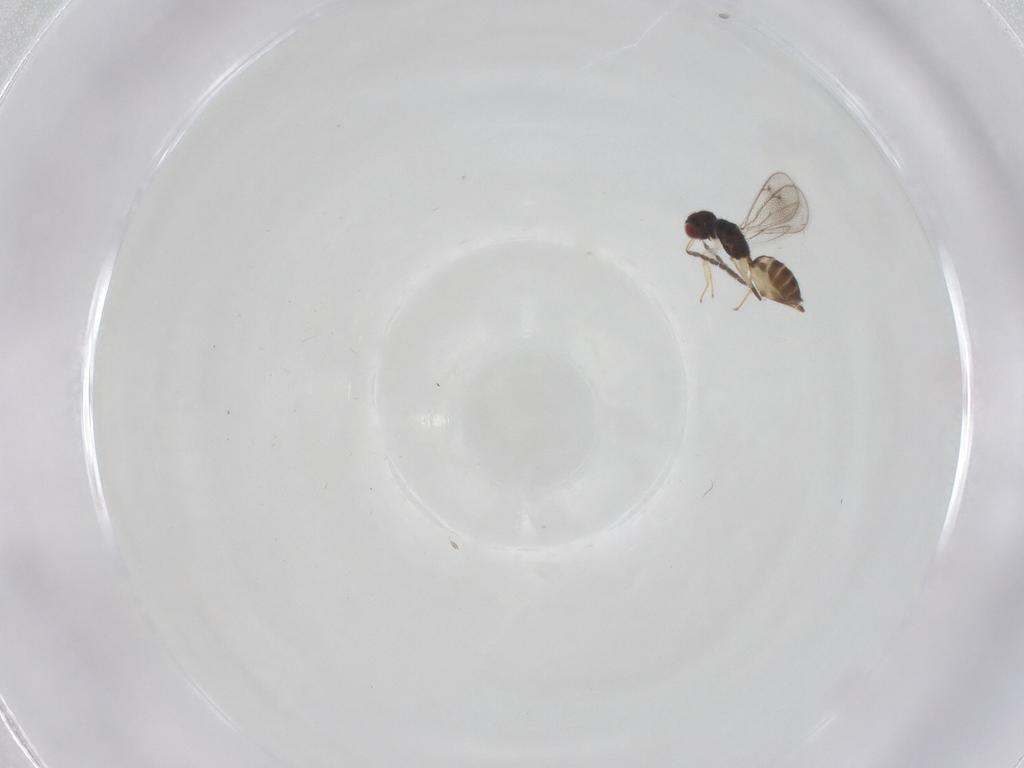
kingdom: Animalia
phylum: Arthropoda
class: Insecta
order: Hymenoptera
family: Eulophidae
